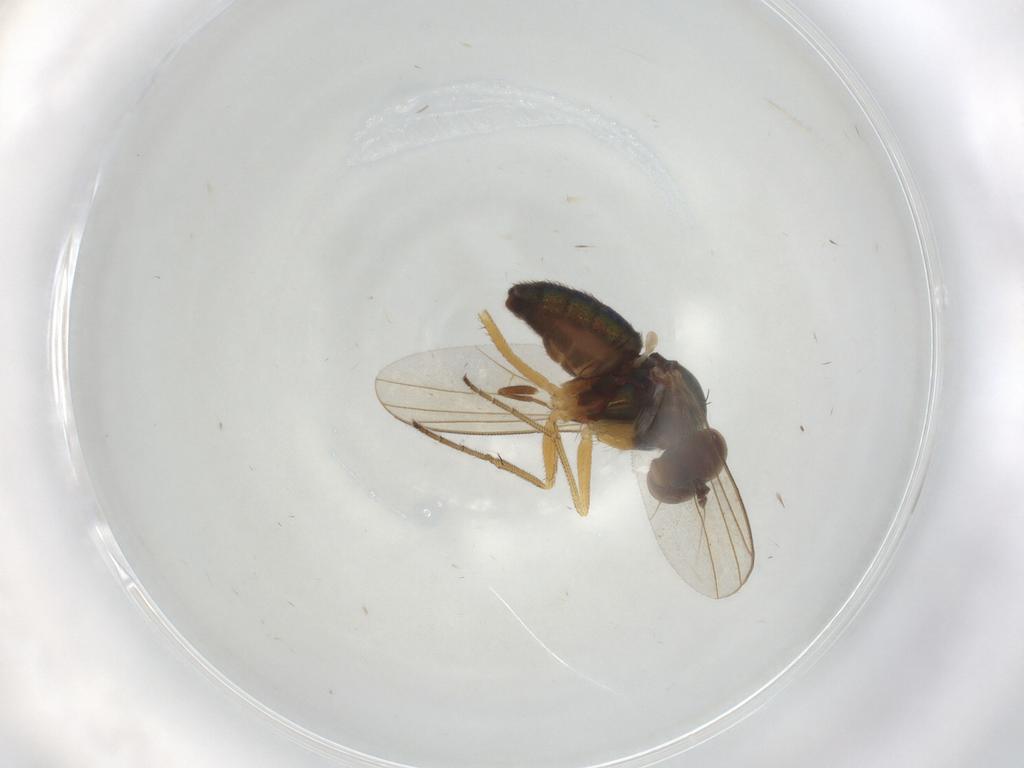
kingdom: Animalia
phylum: Arthropoda
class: Insecta
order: Diptera
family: Dolichopodidae
